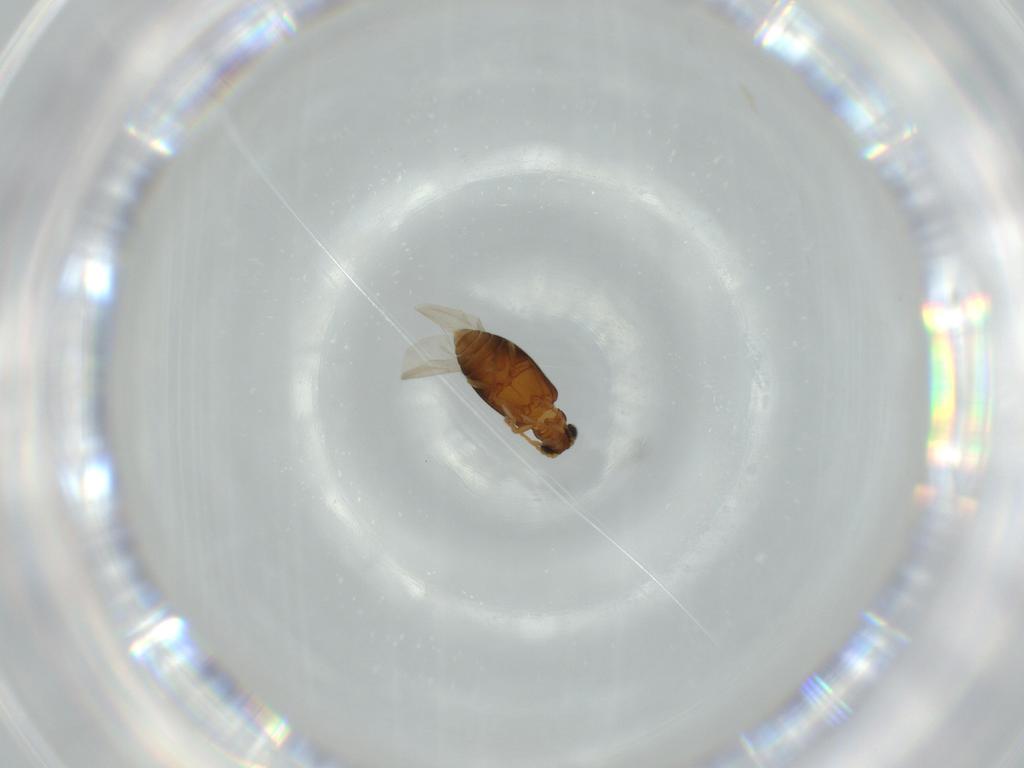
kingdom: Animalia
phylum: Arthropoda
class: Insecta
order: Coleoptera
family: Aderidae
